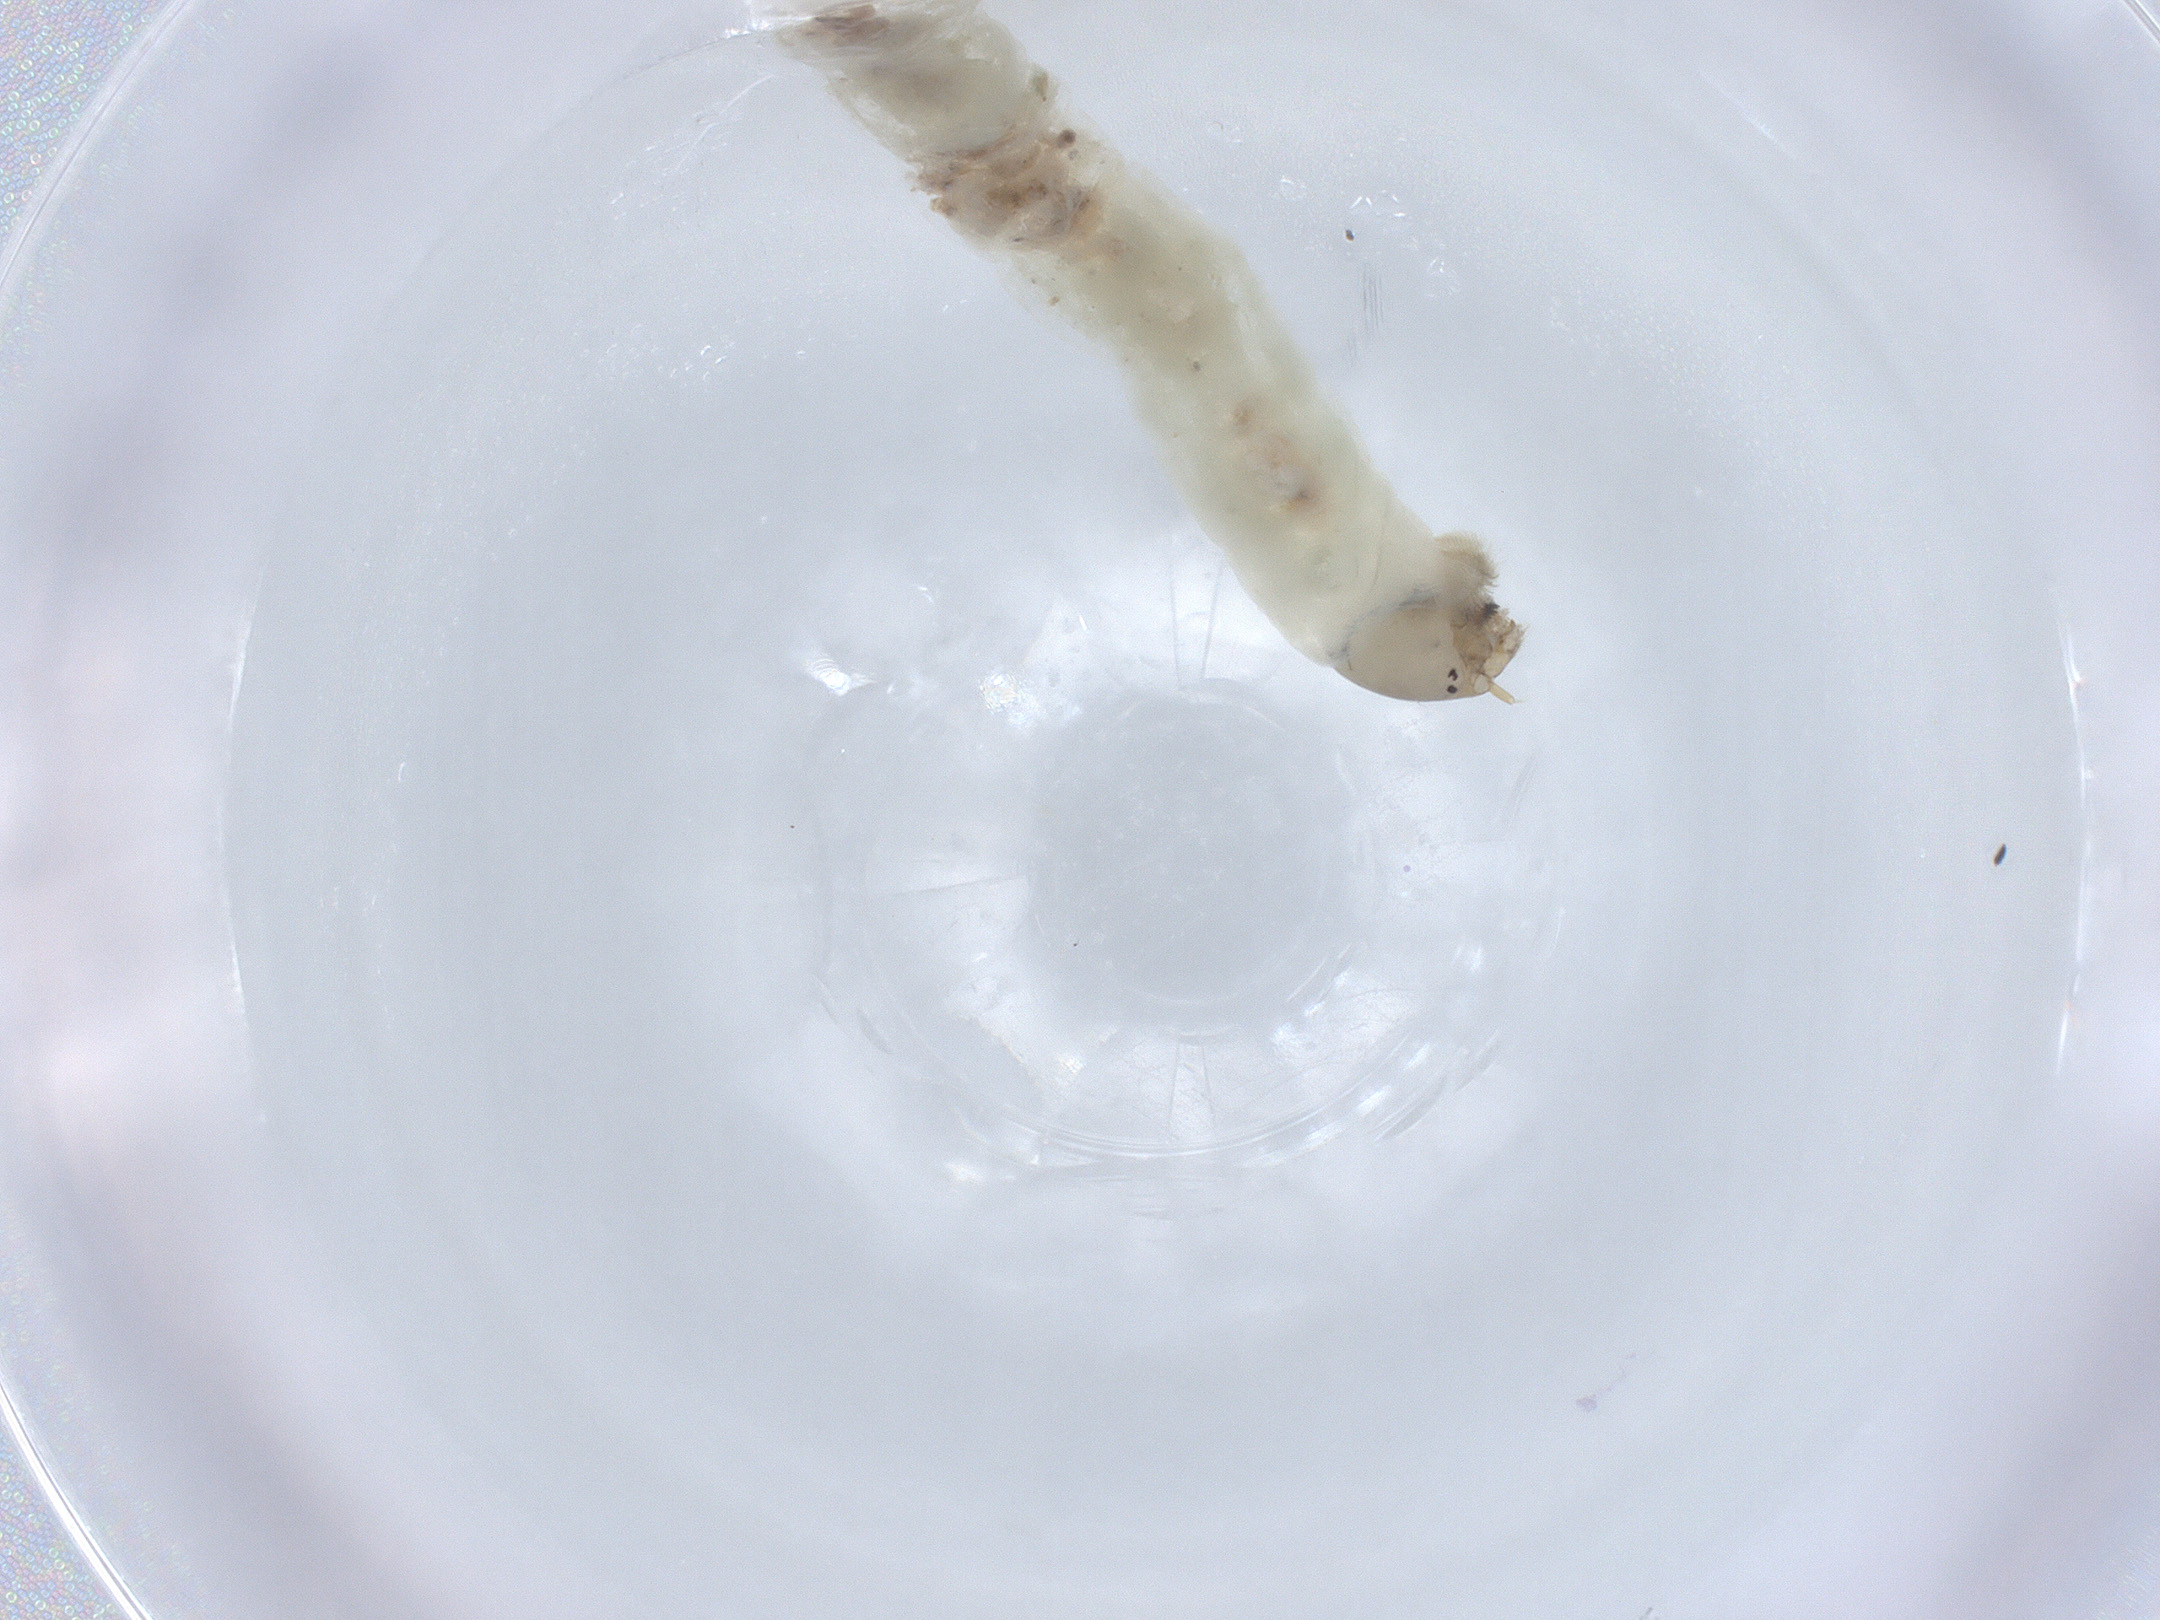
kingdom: Animalia
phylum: Arthropoda
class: Insecta
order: Diptera
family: Chironomidae
